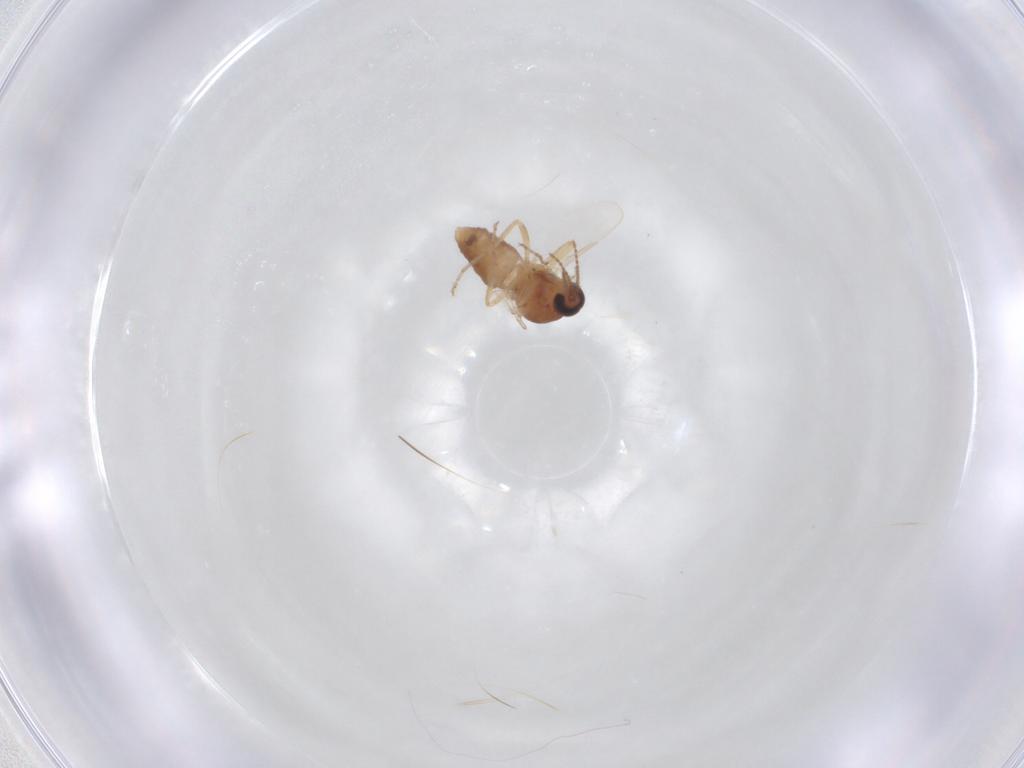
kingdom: Animalia
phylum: Arthropoda
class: Insecta
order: Diptera
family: Chironomidae
